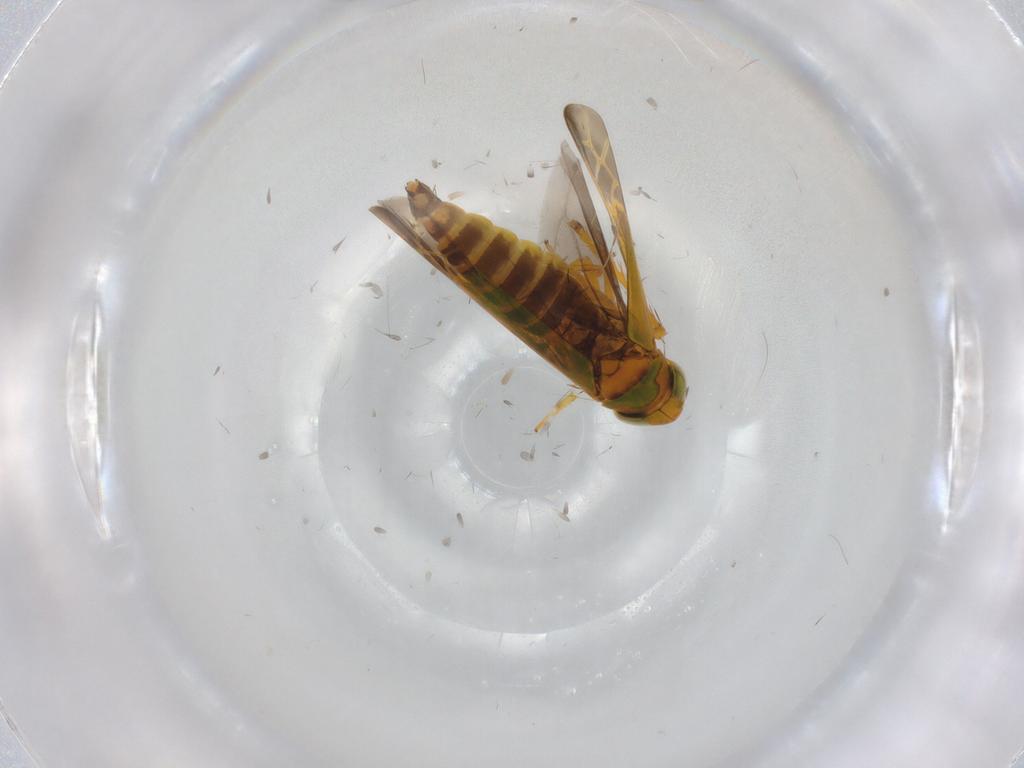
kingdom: Animalia
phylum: Arthropoda
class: Insecta
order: Hemiptera
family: Cicadellidae
